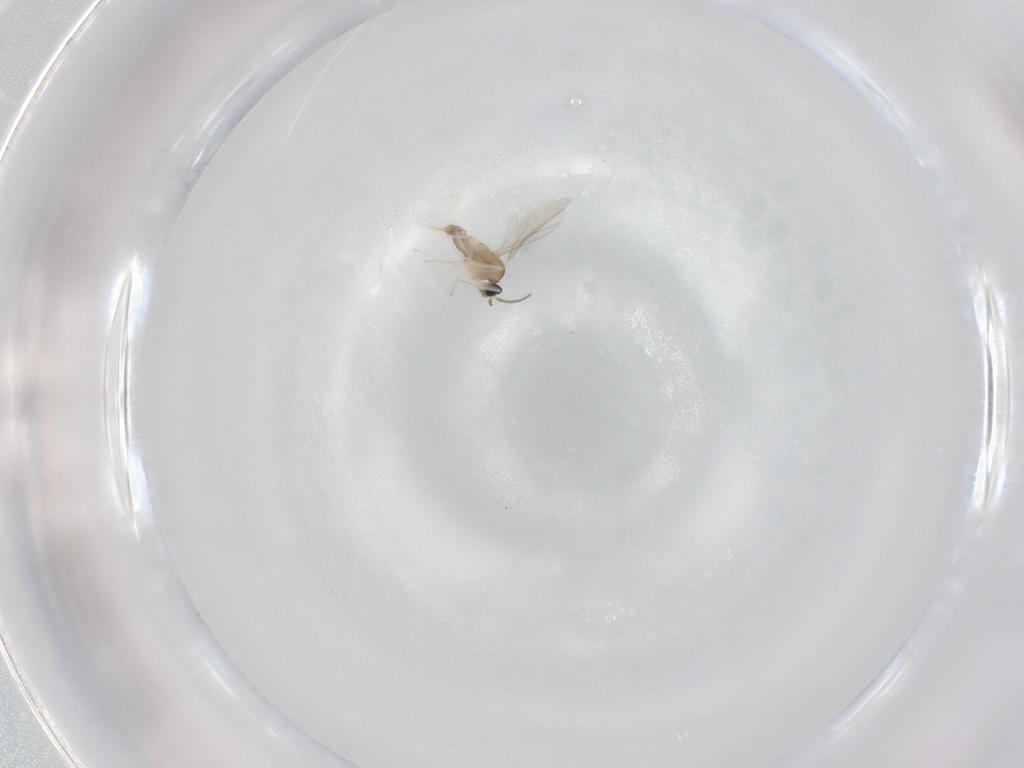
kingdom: Animalia
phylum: Arthropoda
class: Insecta
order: Diptera
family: Cecidomyiidae
